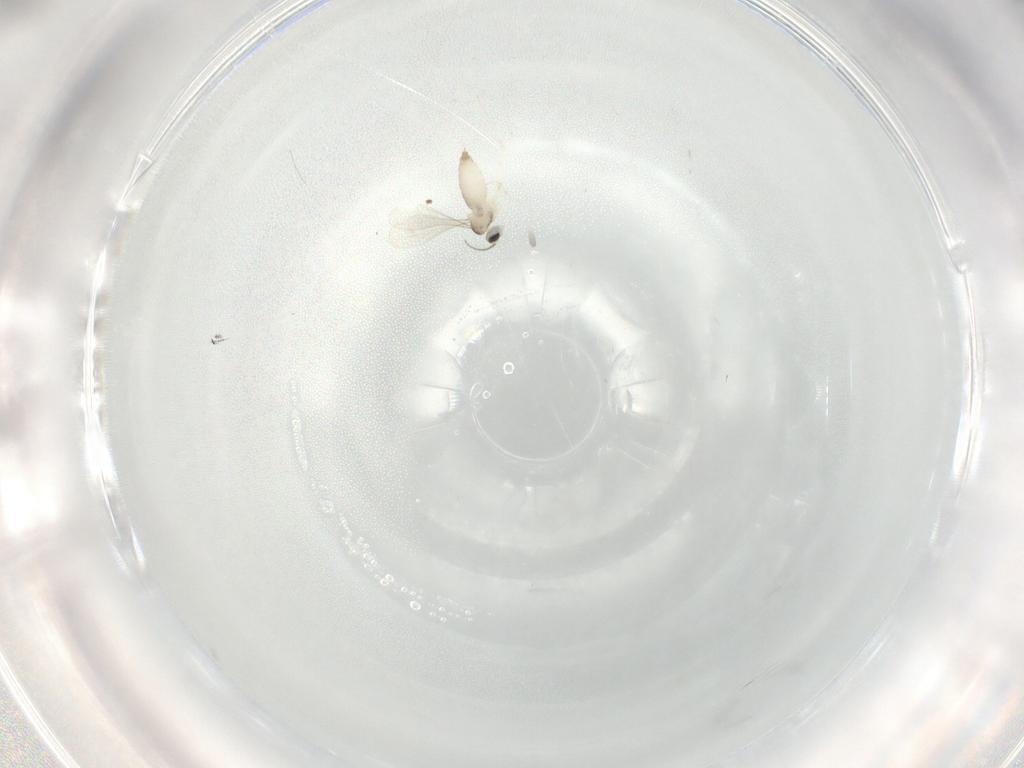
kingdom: Animalia
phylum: Arthropoda
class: Insecta
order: Diptera
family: Cecidomyiidae
